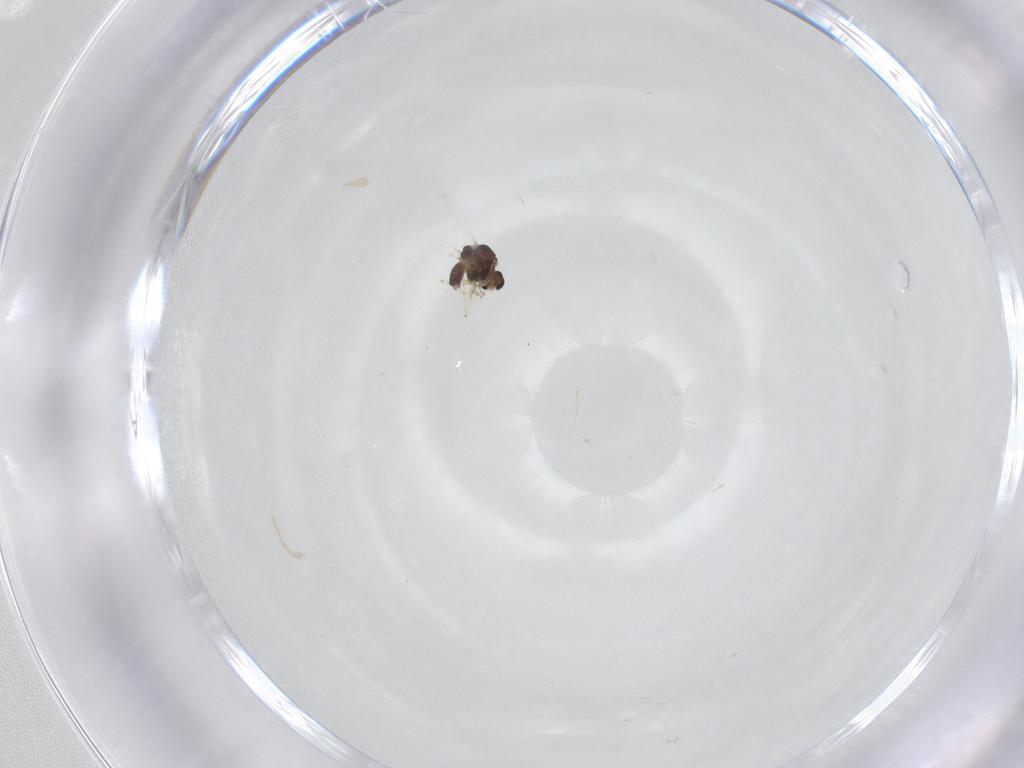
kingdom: Animalia
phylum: Arthropoda
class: Insecta
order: Diptera
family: Chironomidae
